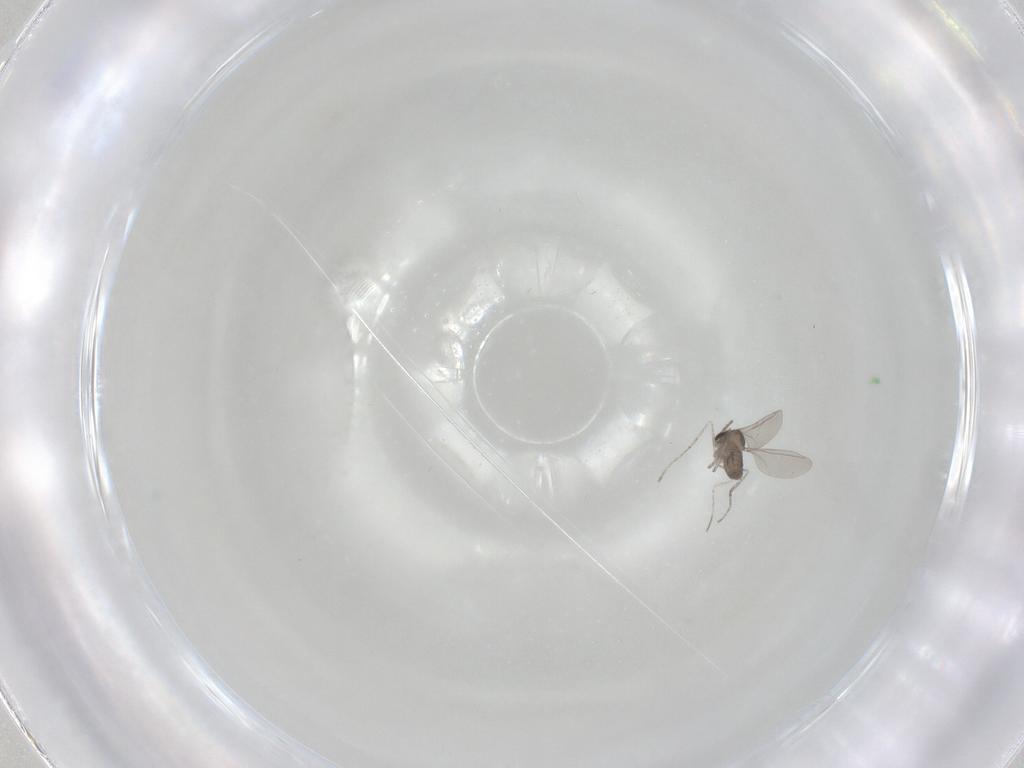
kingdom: Animalia
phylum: Arthropoda
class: Insecta
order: Diptera
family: Cecidomyiidae
